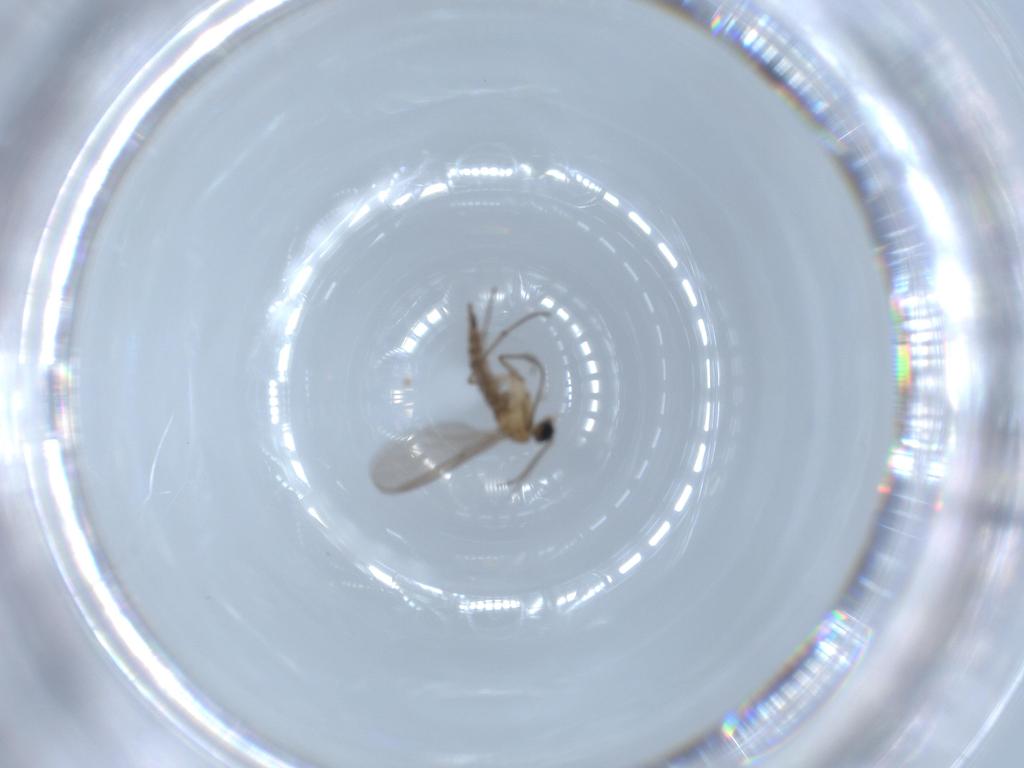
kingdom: Animalia
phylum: Arthropoda
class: Insecta
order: Diptera
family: Sciaridae
